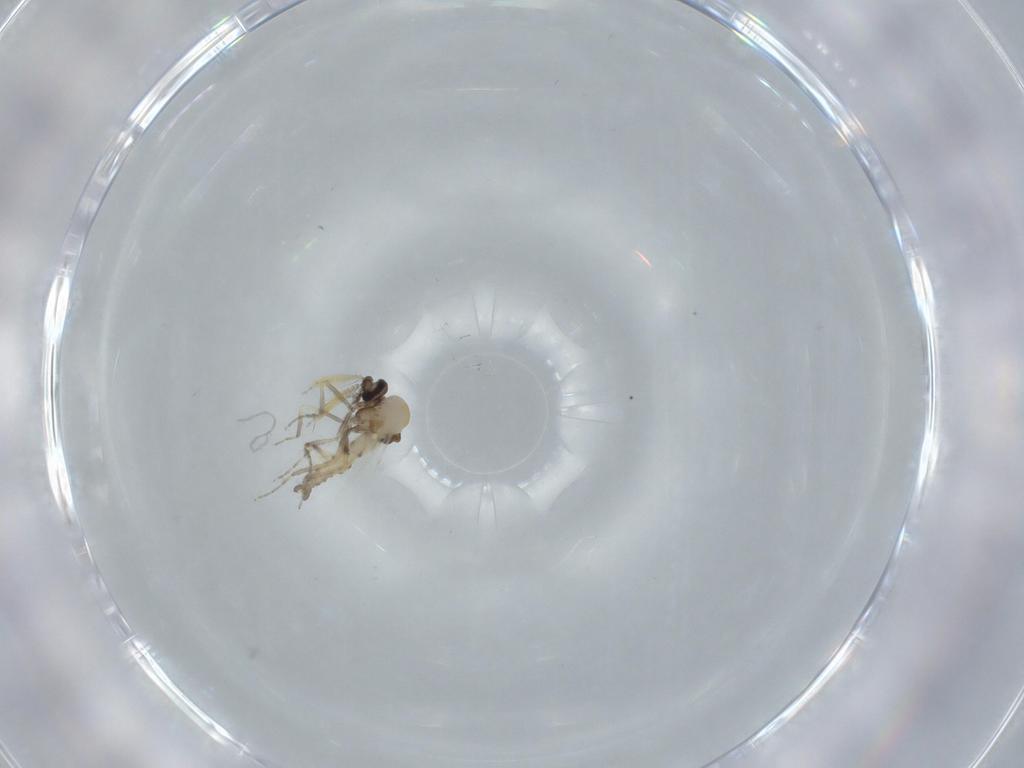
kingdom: Animalia
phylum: Arthropoda
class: Insecta
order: Diptera
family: Ceratopogonidae
